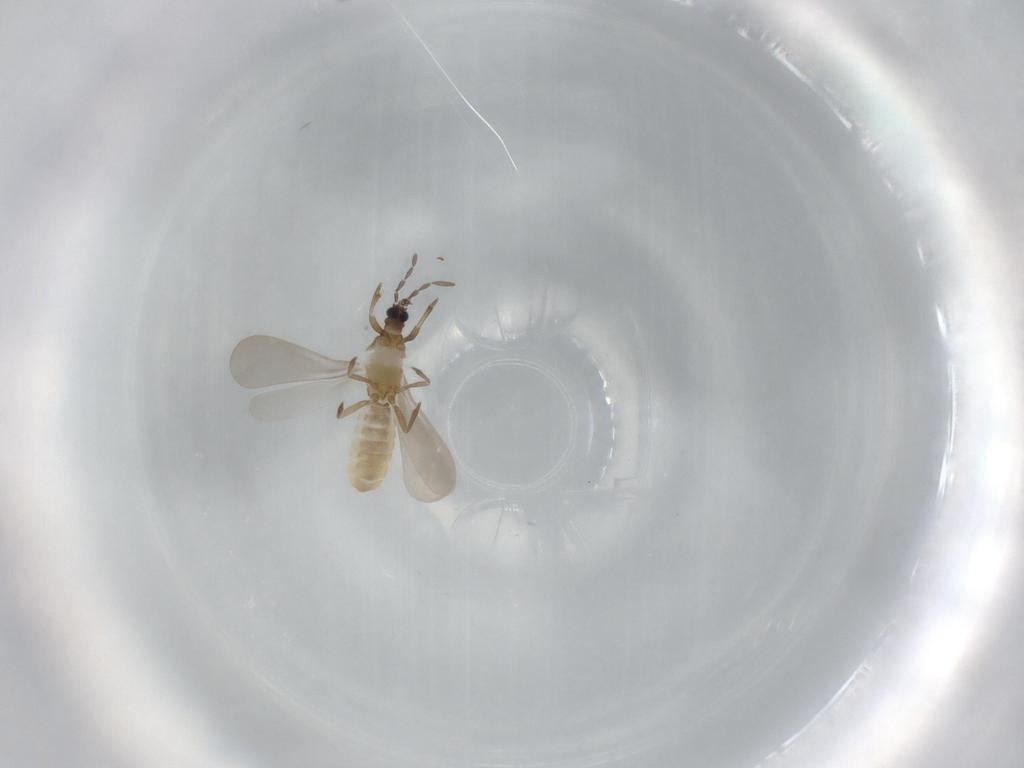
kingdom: Animalia
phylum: Arthropoda
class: Insecta
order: Hemiptera
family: Enicocephalidae
